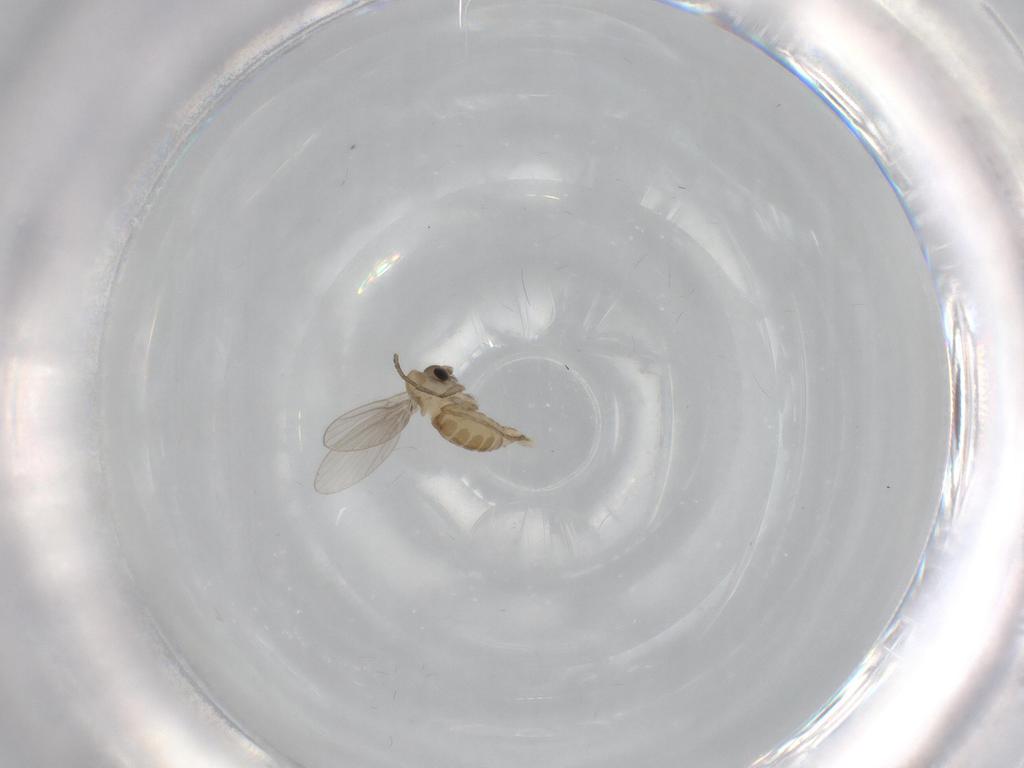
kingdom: Animalia
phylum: Arthropoda
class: Insecta
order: Diptera
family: Psychodidae
